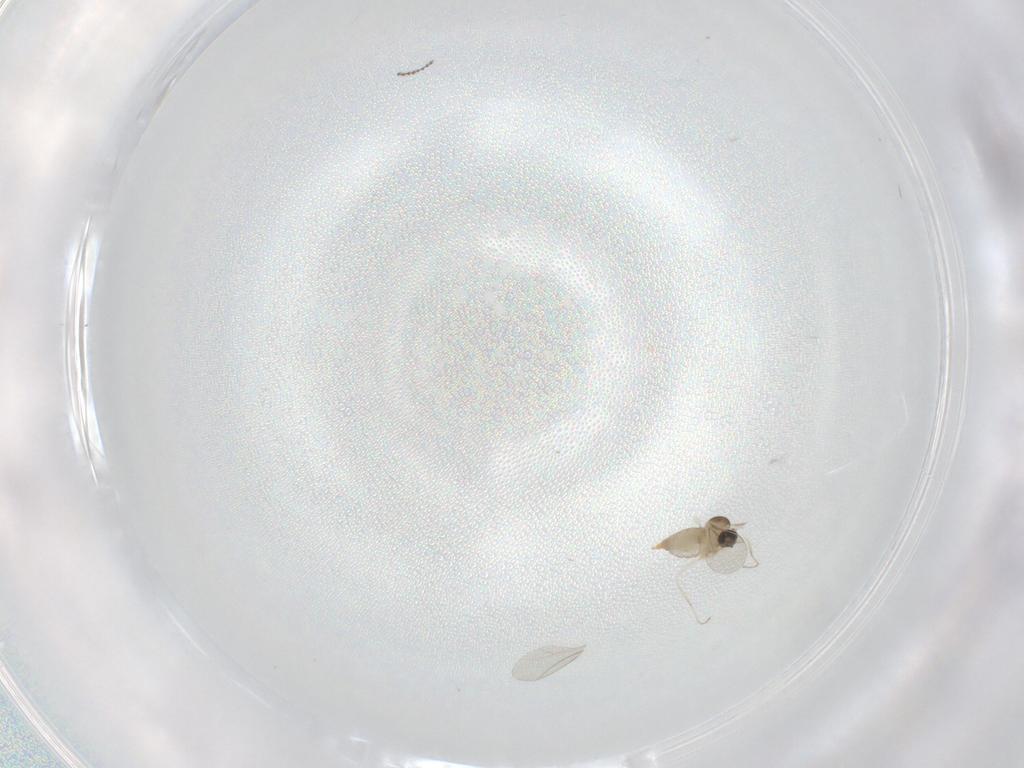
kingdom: Animalia
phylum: Arthropoda
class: Insecta
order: Diptera
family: Cecidomyiidae
